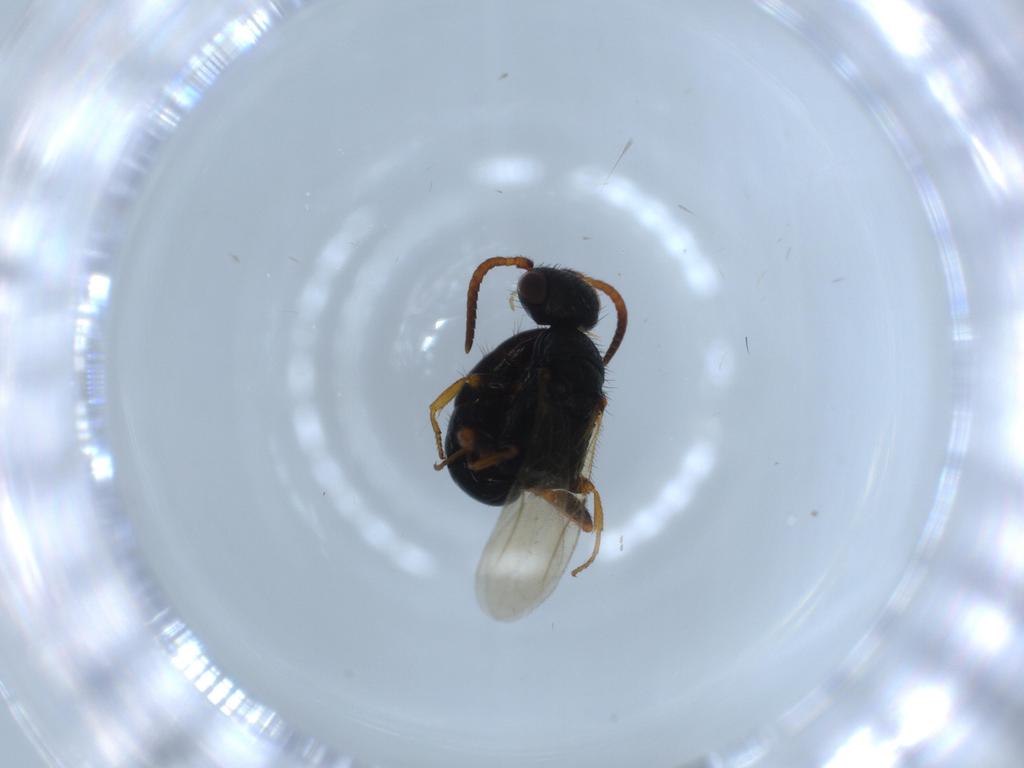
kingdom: Animalia
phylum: Arthropoda
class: Insecta
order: Hymenoptera
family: Bethylidae
